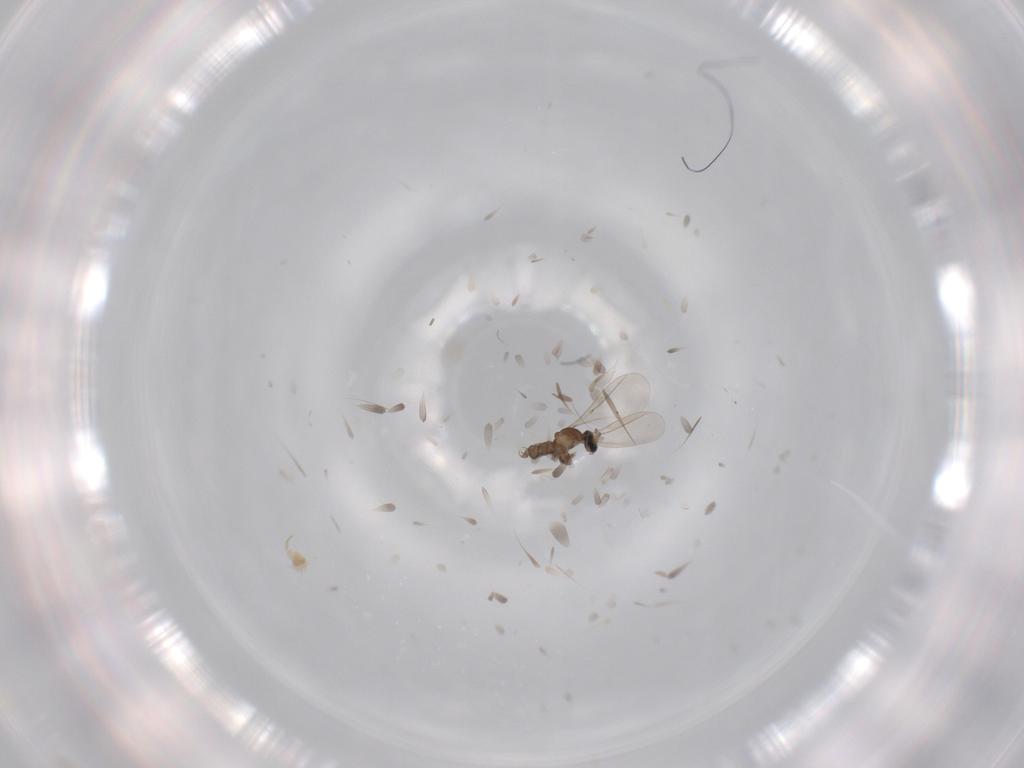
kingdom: Animalia
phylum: Arthropoda
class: Insecta
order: Diptera
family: Cecidomyiidae
